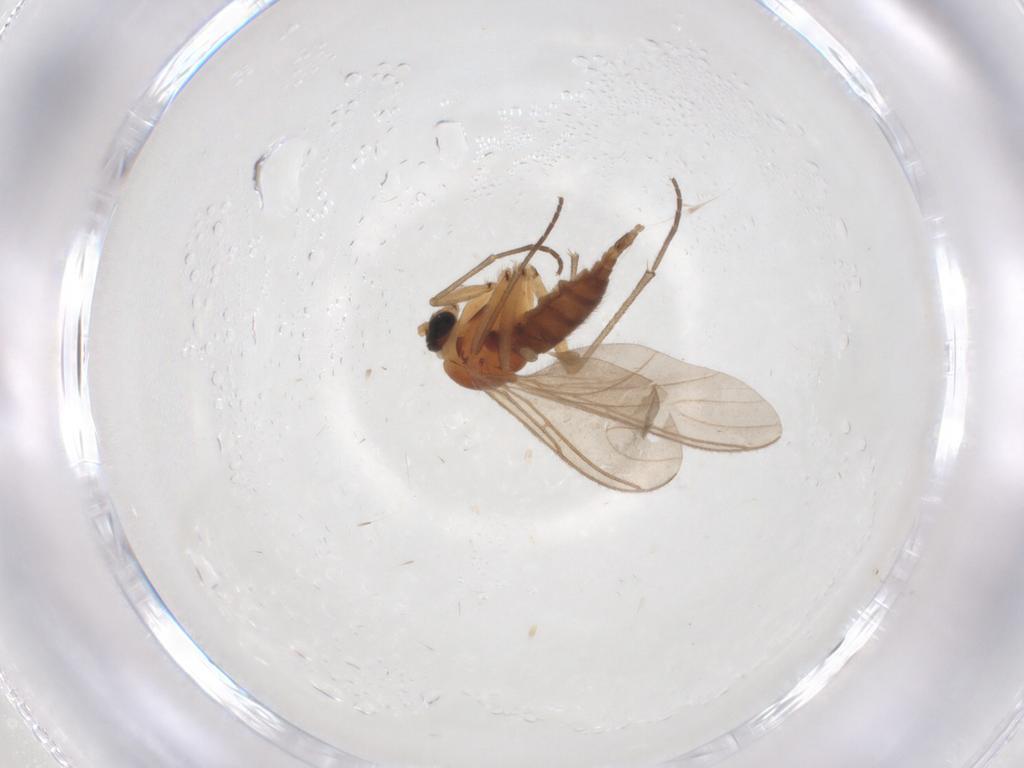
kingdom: Animalia
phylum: Arthropoda
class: Insecta
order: Diptera
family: Sciaridae
